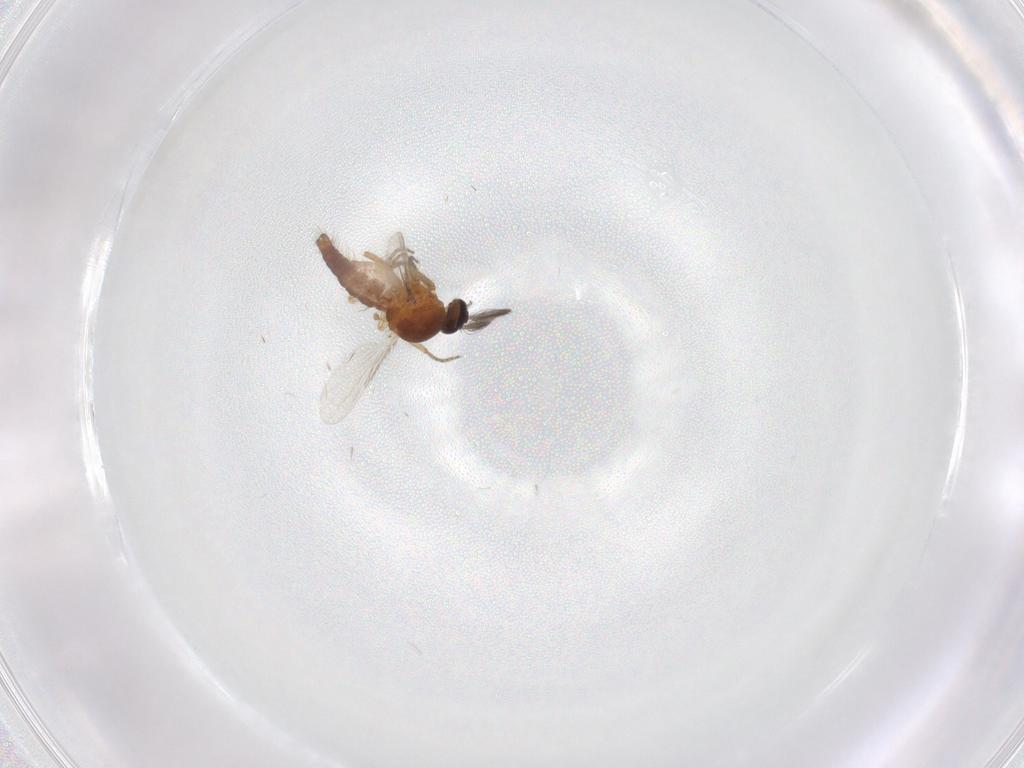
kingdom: Animalia
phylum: Arthropoda
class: Insecta
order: Diptera
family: Ceratopogonidae
